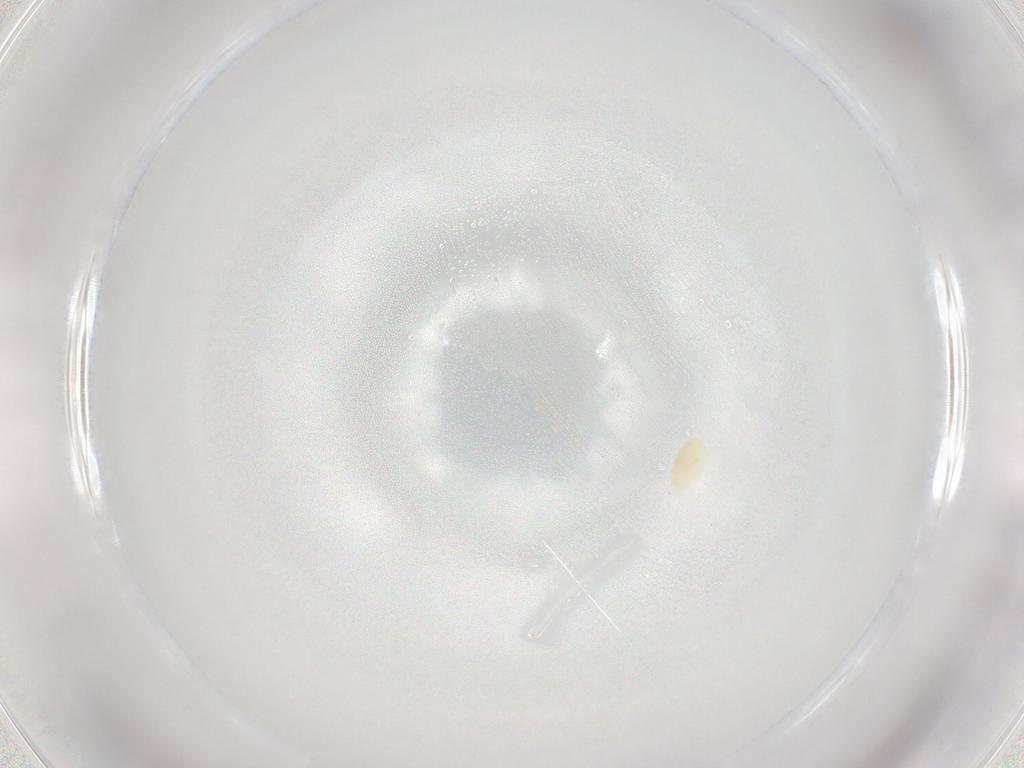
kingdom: Animalia
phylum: Arthropoda
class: Arachnida
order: Trombidiformes
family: Eupodidae
